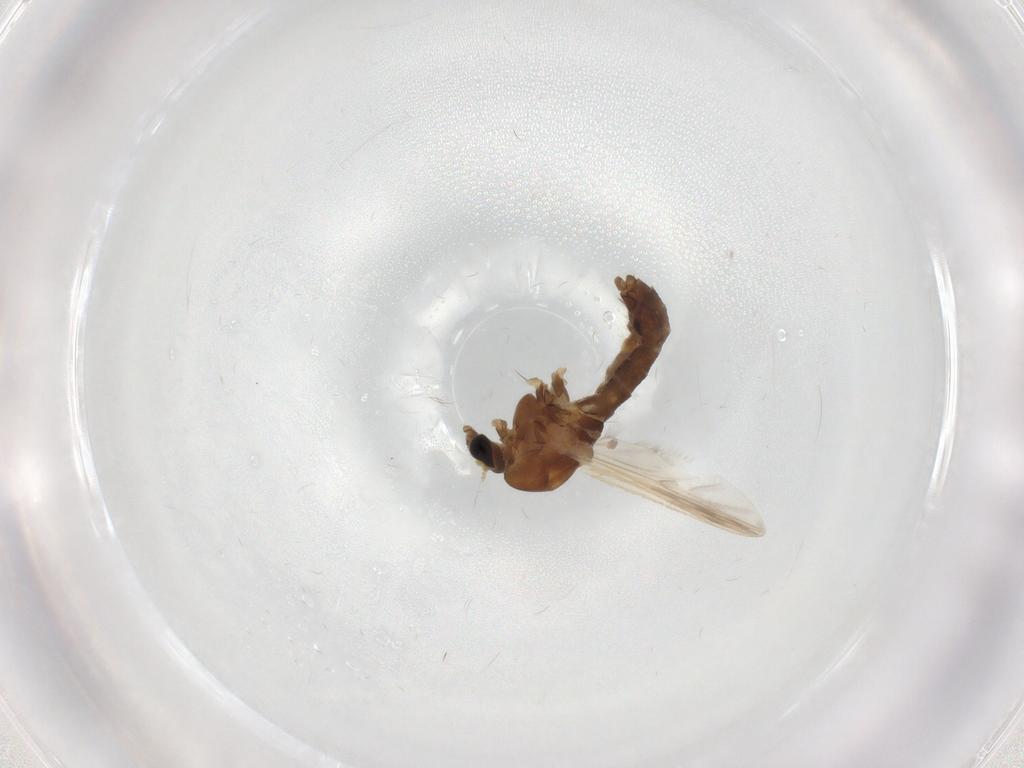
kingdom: Animalia
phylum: Arthropoda
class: Insecta
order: Diptera
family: Chironomidae
